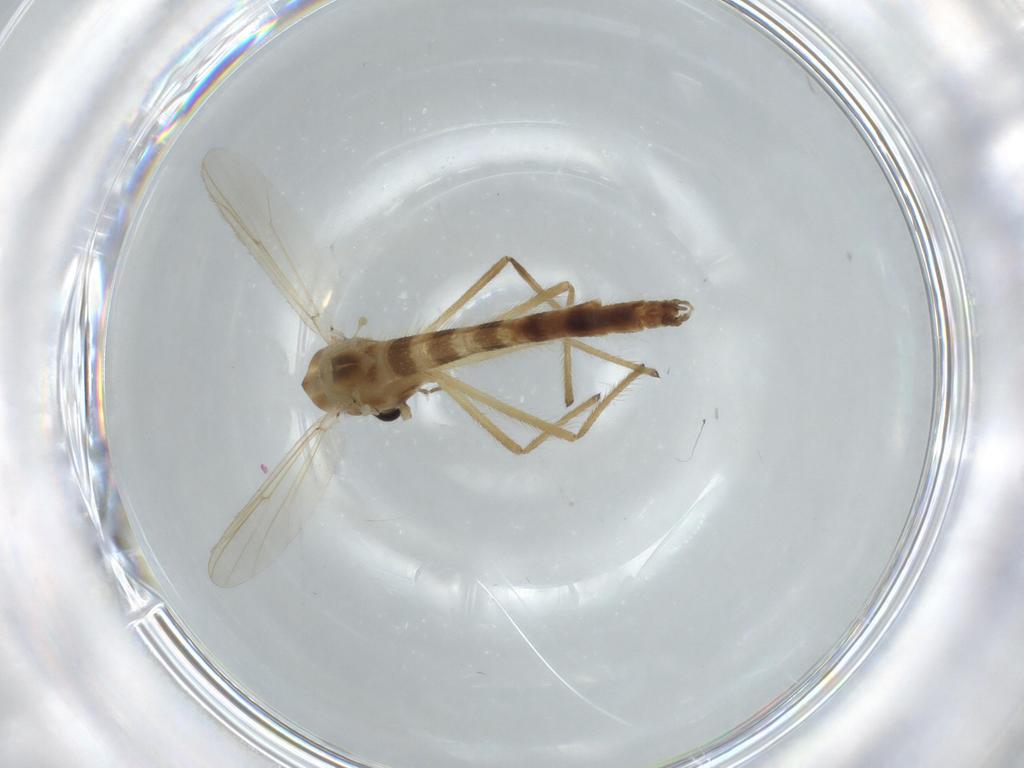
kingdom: Animalia
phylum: Arthropoda
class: Insecta
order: Diptera
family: Chironomidae
